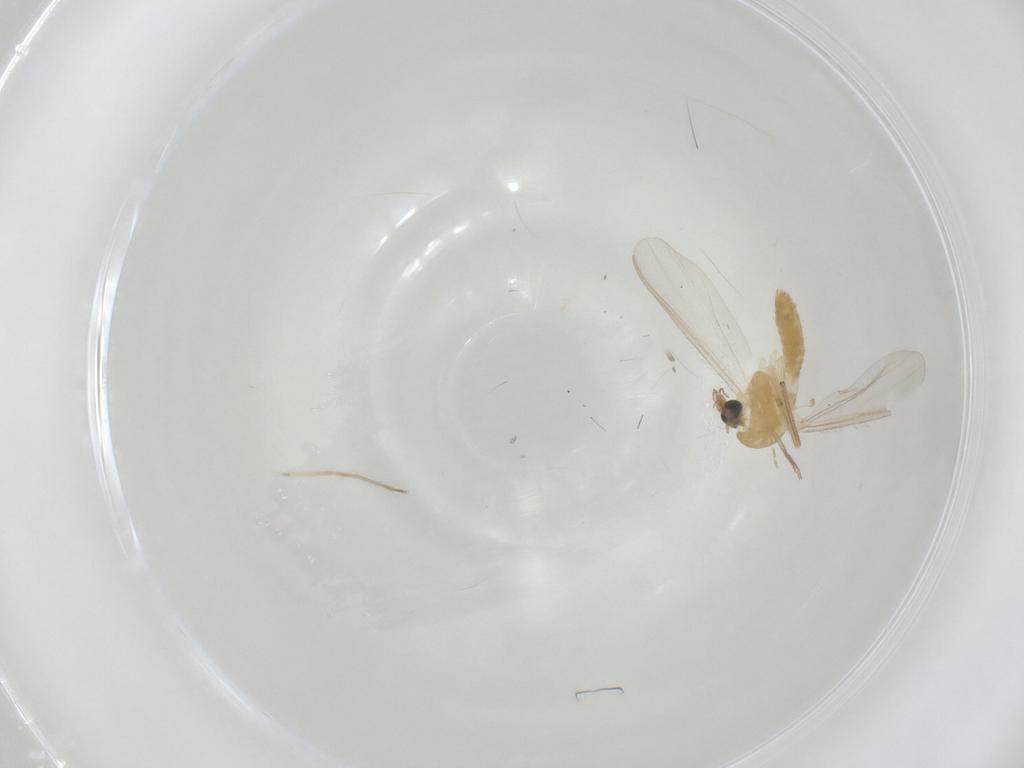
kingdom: Animalia
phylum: Arthropoda
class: Insecta
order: Diptera
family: Chironomidae
